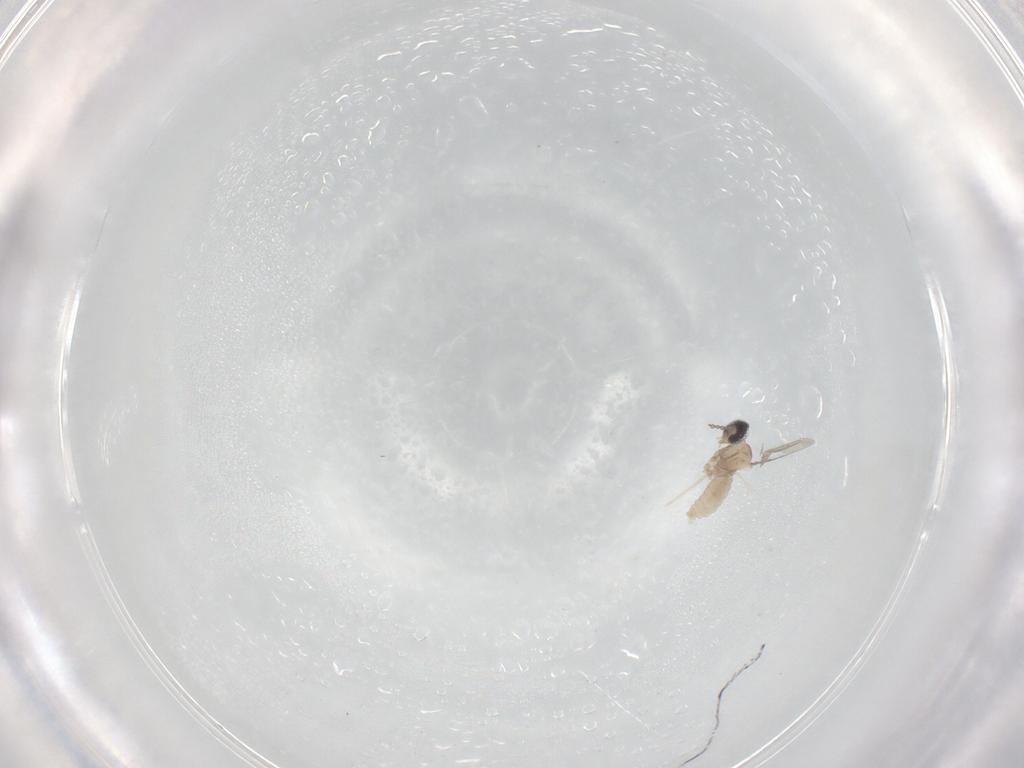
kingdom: Animalia
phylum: Arthropoda
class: Insecta
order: Diptera
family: Cecidomyiidae
